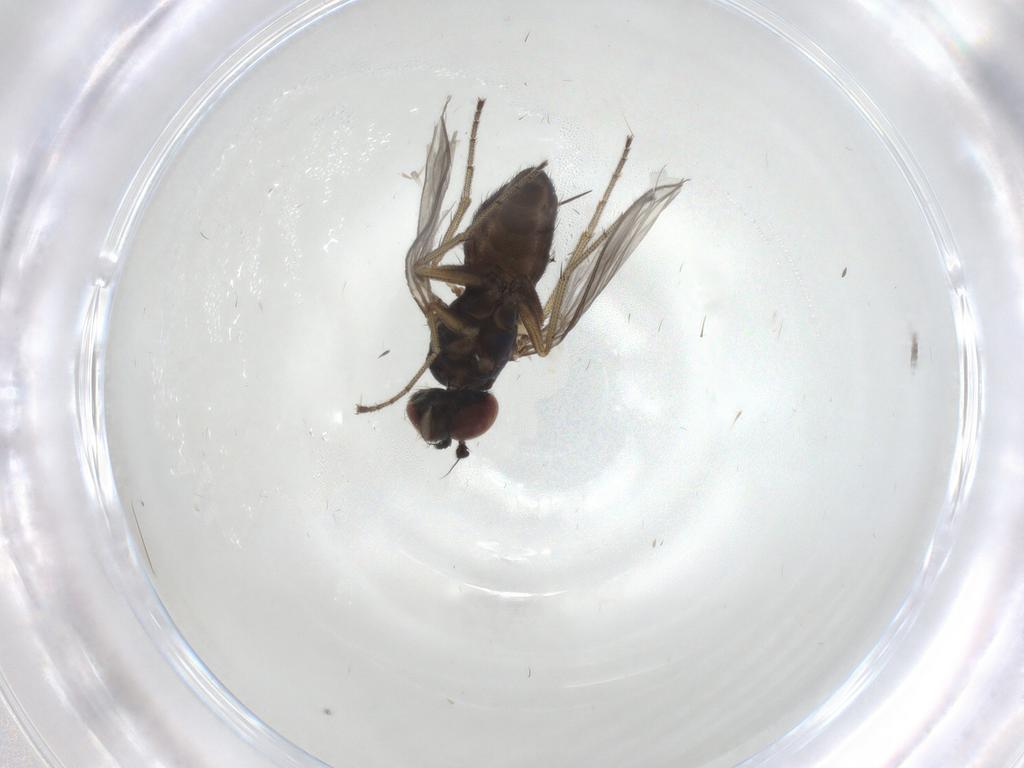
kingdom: Animalia
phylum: Arthropoda
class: Insecta
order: Diptera
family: Dolichopodidae
